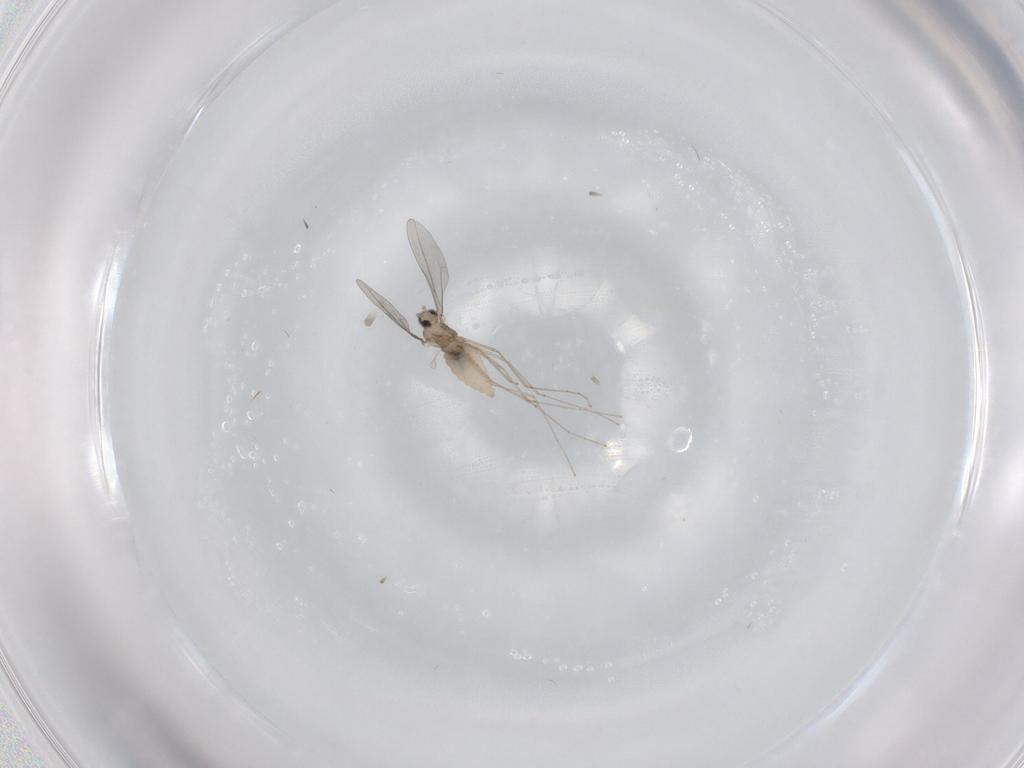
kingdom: Animalia
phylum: Arthropoda
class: Insecta
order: Diptera
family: Cecidomyiidae
